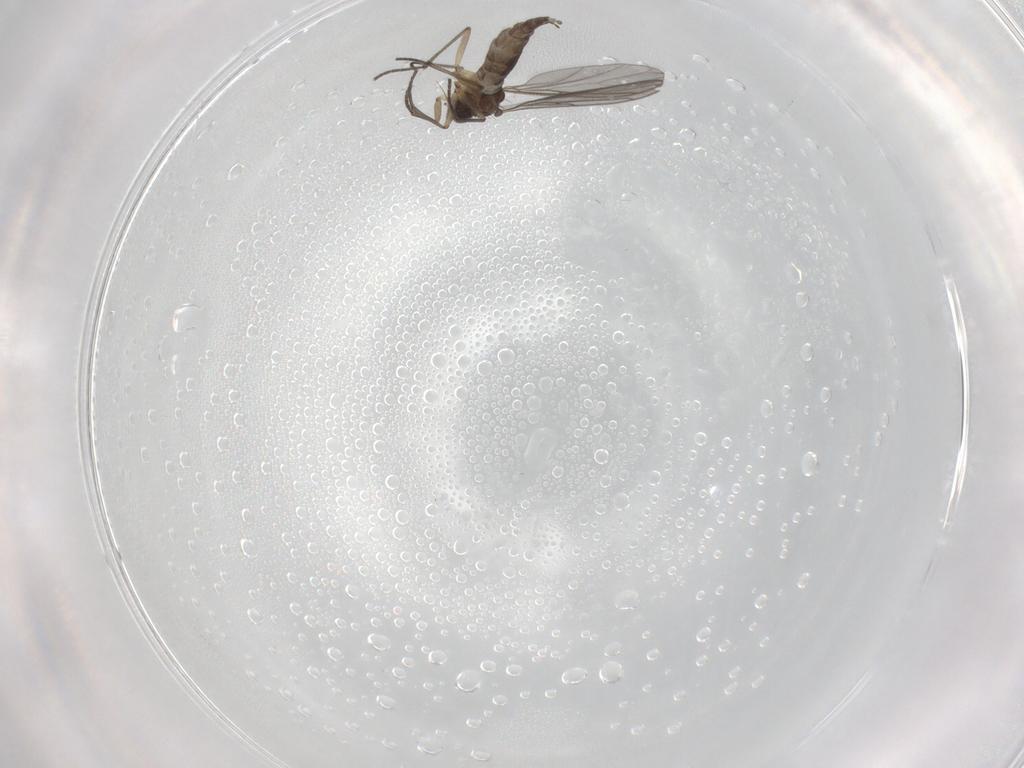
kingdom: Animalia
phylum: Arthropoda
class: Insecta
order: Diptera
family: Sciaridae
